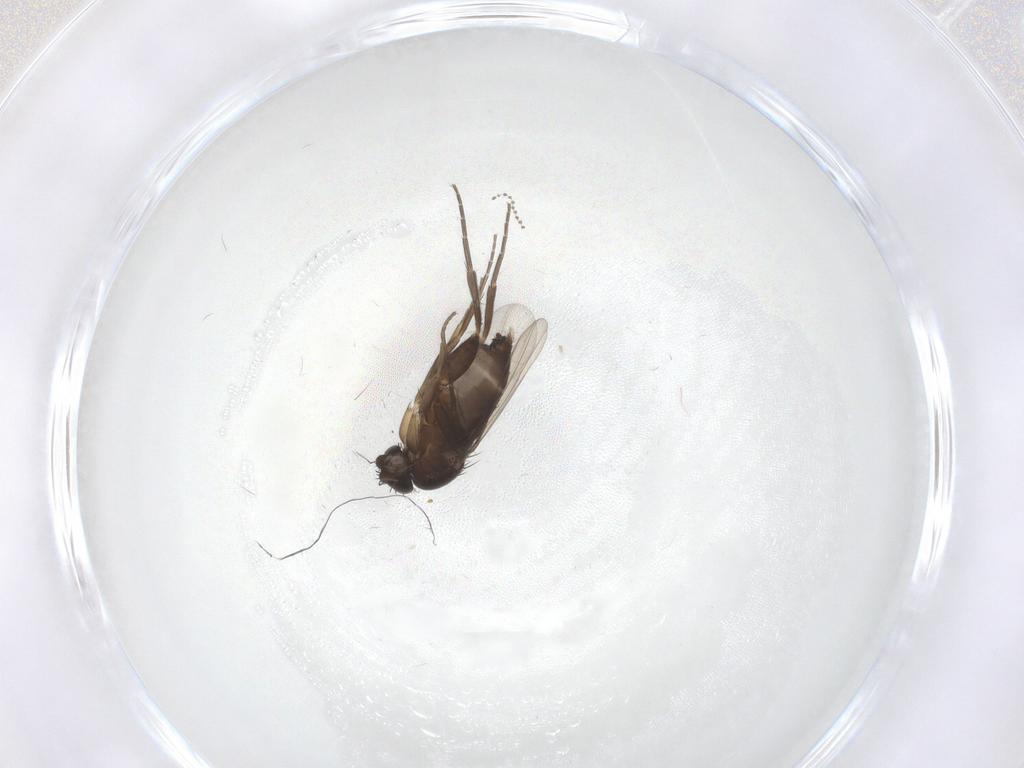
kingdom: Animalia
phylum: Arthropoda
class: Insecta
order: Diptera
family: Phoridae
